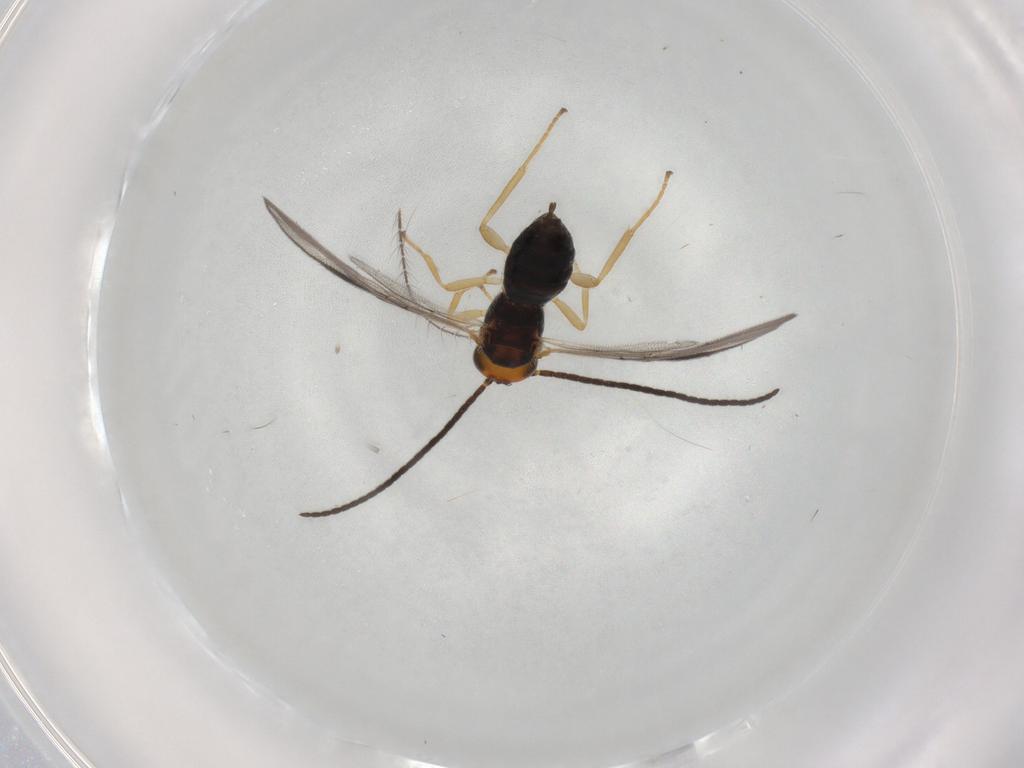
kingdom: Animalia
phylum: Arthropoda
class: Insecta
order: Hymenoptera
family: Braconidae
